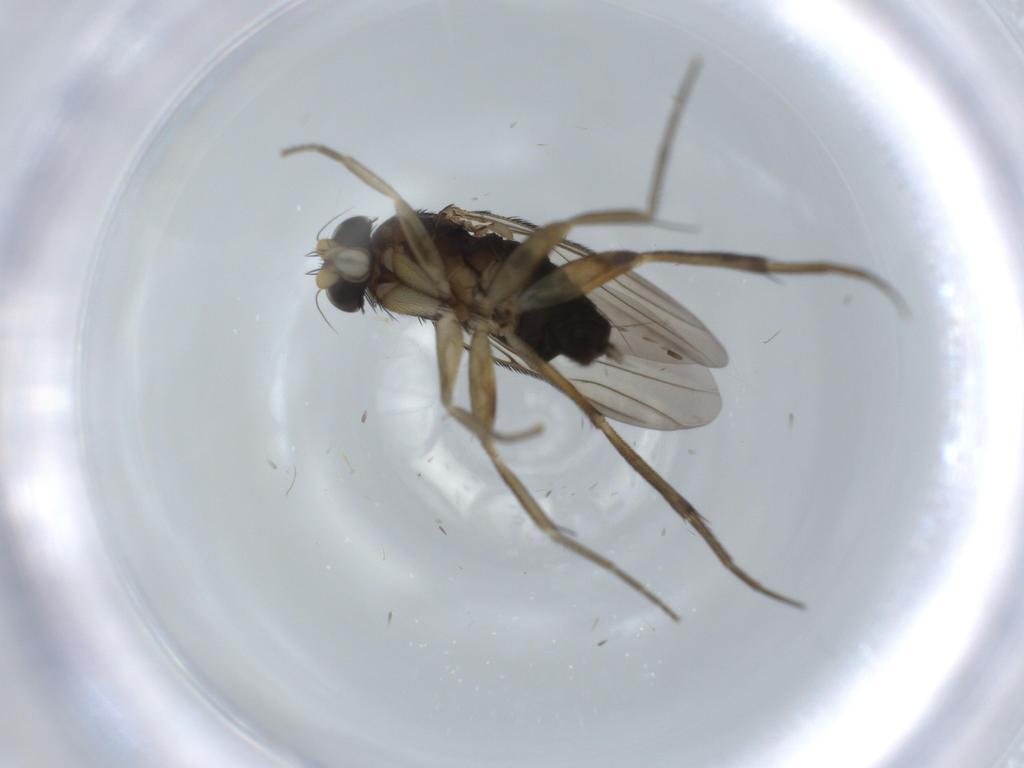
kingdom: Animalia
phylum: Arthropoda
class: Insecta
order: Diptera
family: Phoridae
